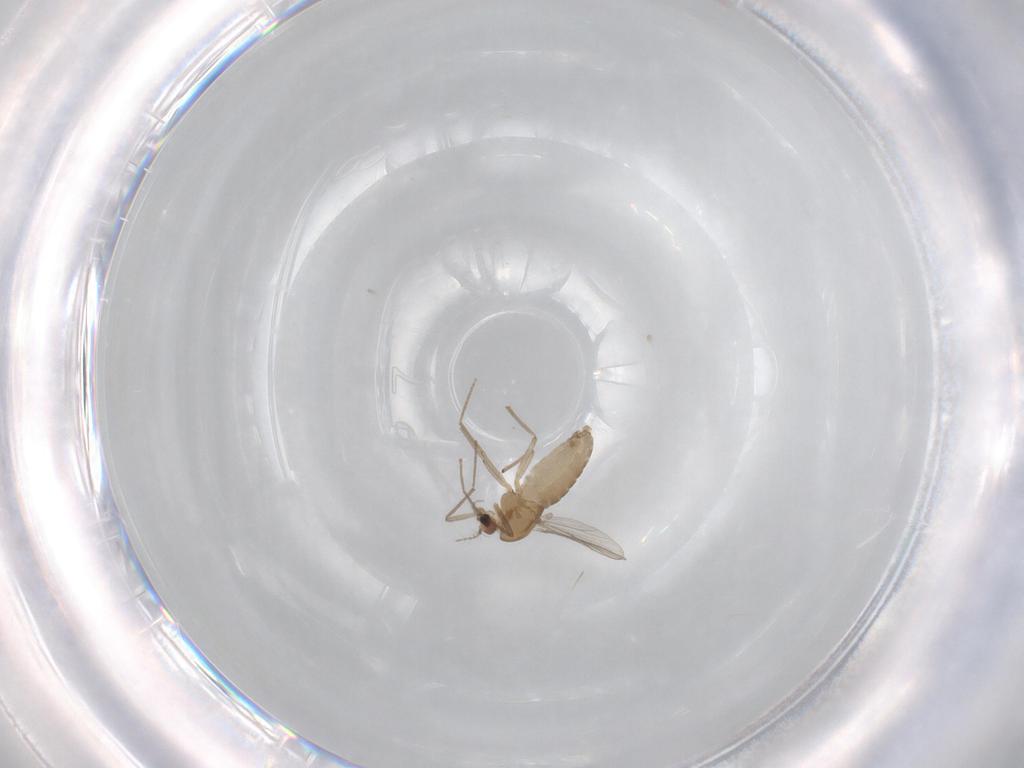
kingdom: Animalia
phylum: Arthropoda
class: Insecta
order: Diptera
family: Chironomidae
